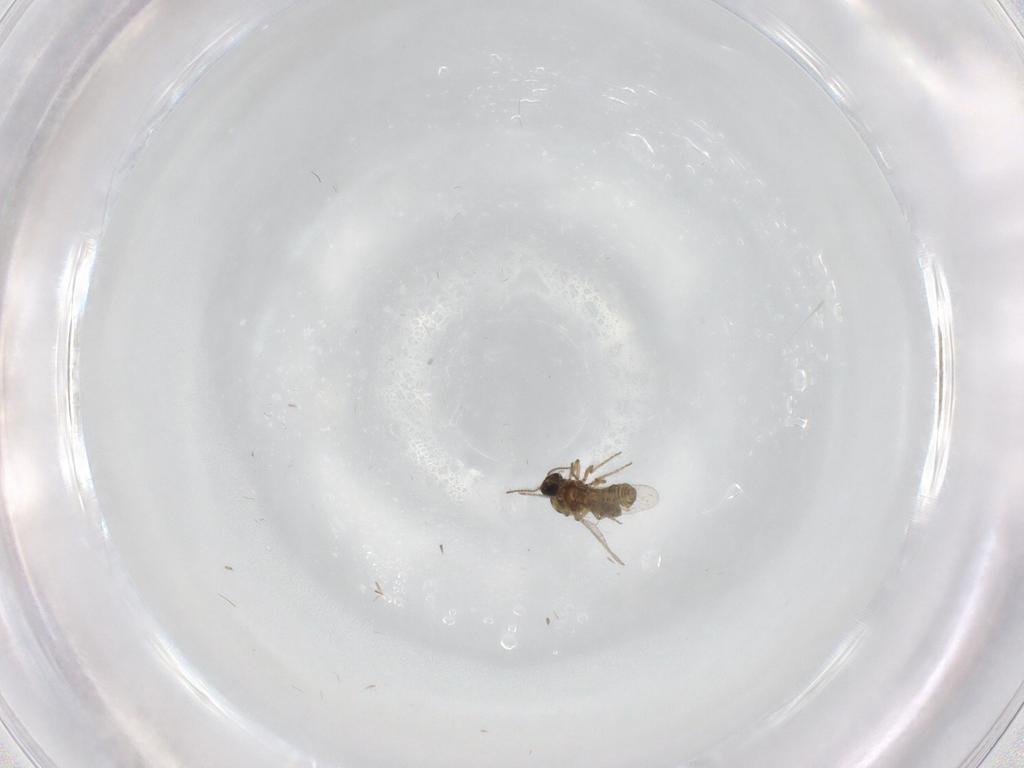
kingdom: Animalia
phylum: Arthropoda
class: Insecta
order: Diptera
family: Ceratopogonidae
